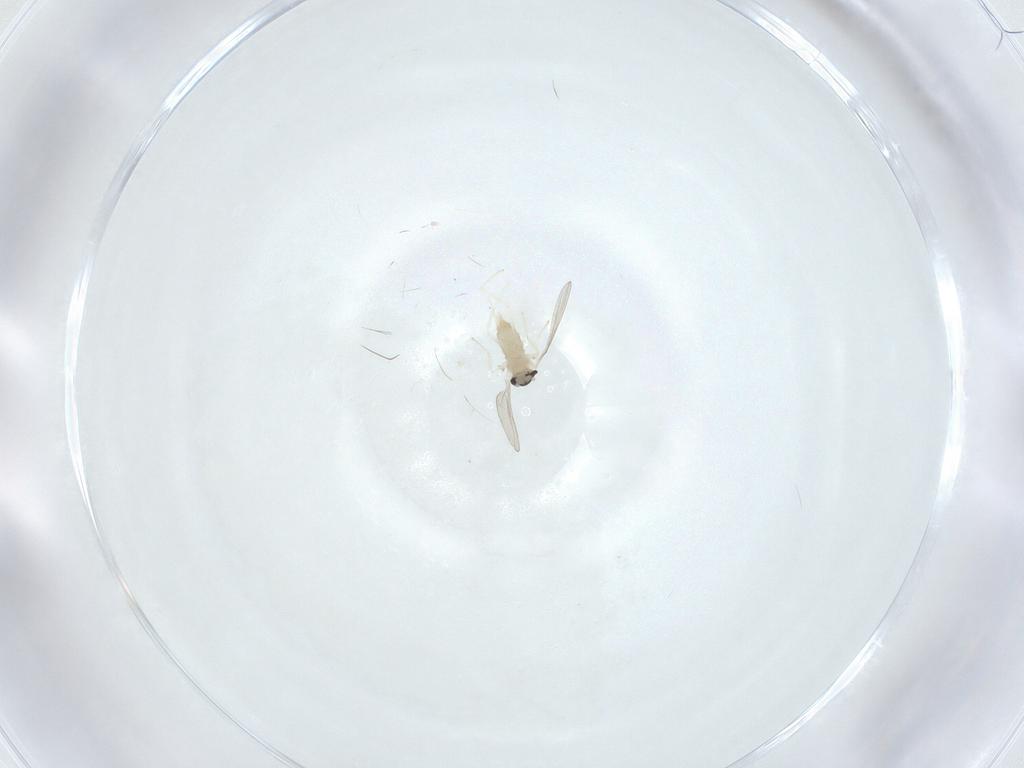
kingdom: Animalia
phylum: Arthropoda
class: Insecta
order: Diptera
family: Cecidomyiidae
